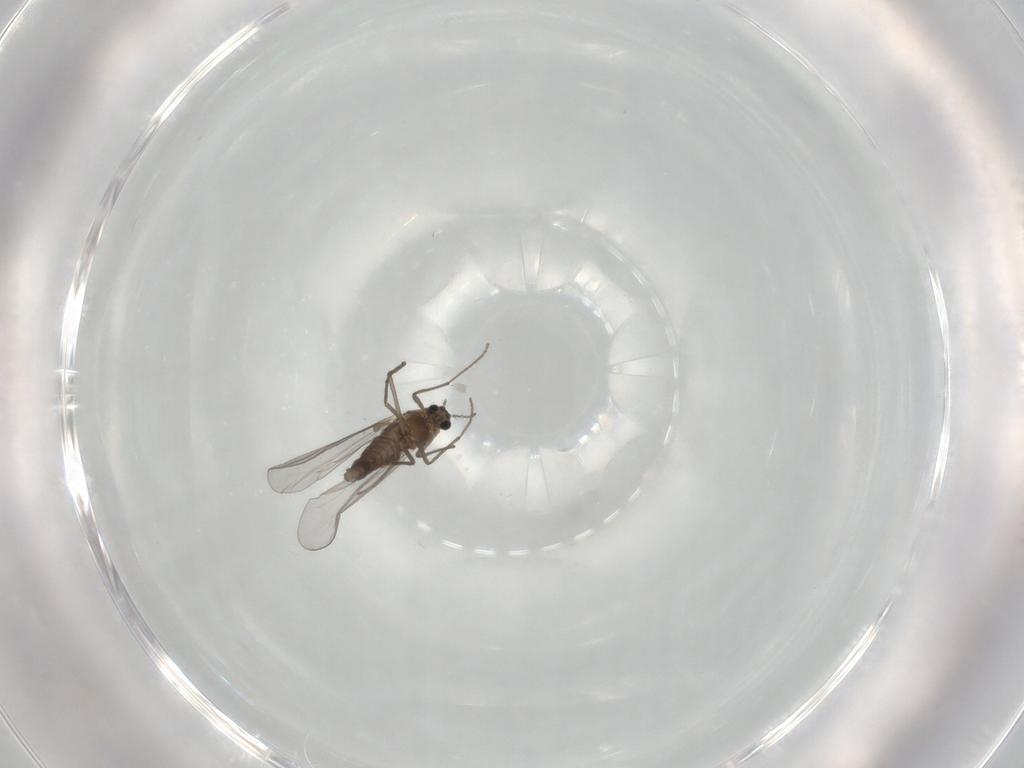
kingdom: Animalia
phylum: Arthropoda
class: Insecta
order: Diptera
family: Chironomidae
